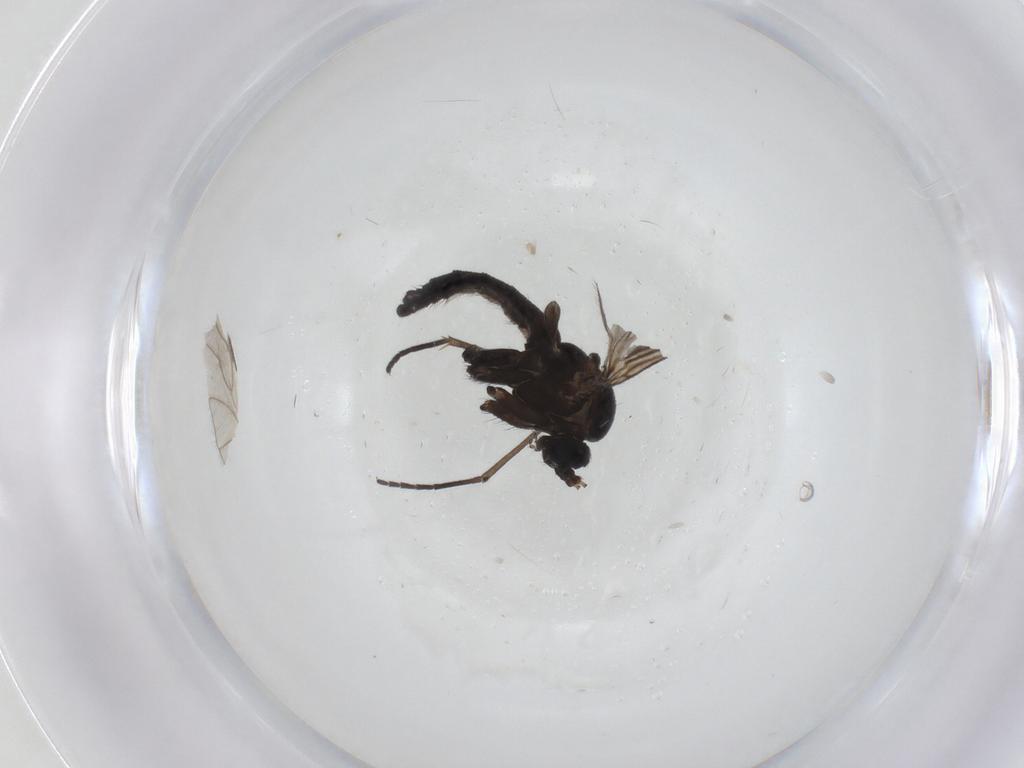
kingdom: Animalia
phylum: Arthropoda
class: Insecta
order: Diptera
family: Sciaridae
